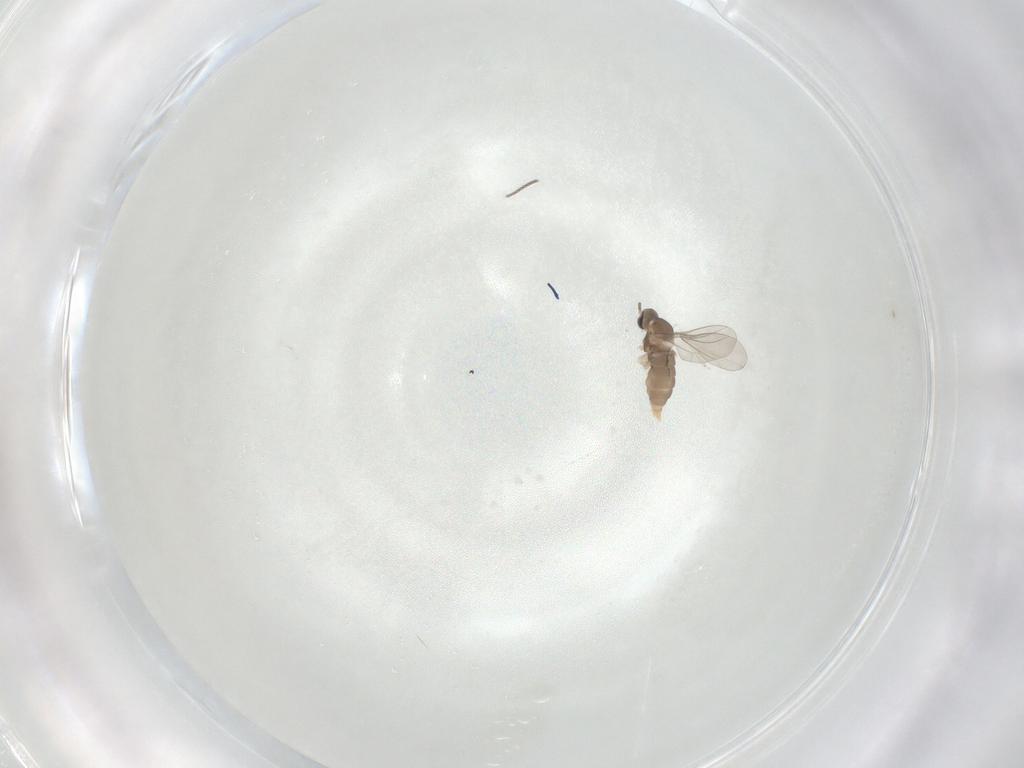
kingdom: Animalia
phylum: Arthropoda
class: Insecta
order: Diptera
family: Cecidomyiidae
